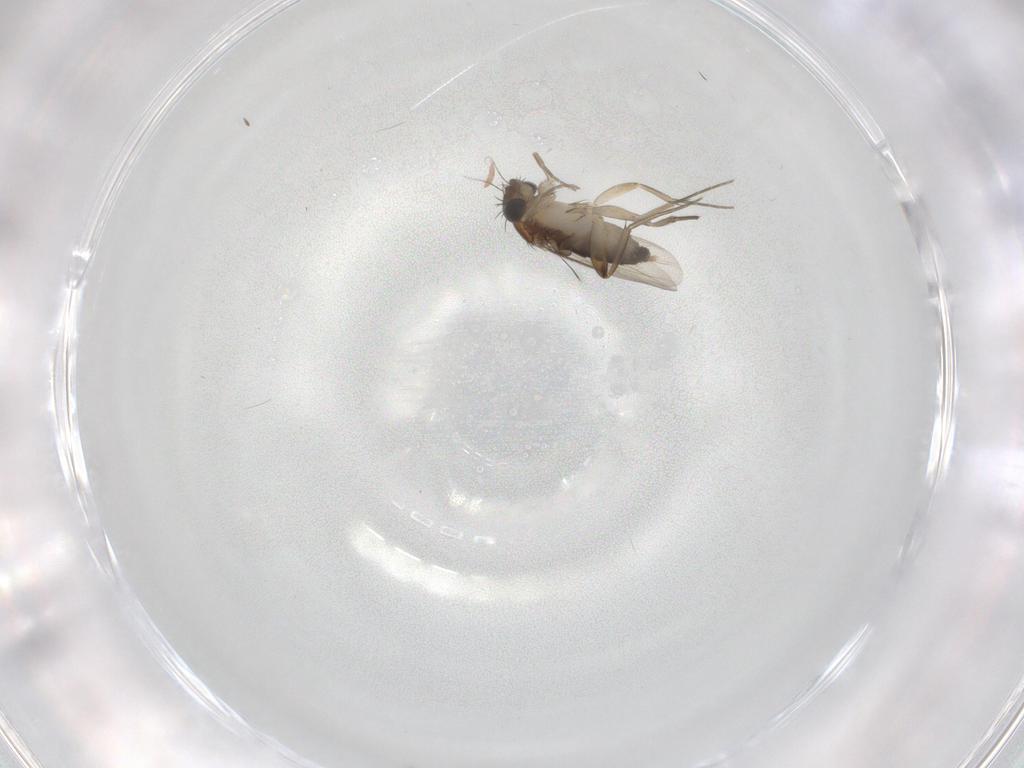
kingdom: Animalia
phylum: Arthropoda
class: Insecta
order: Diptera
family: Phoridae
